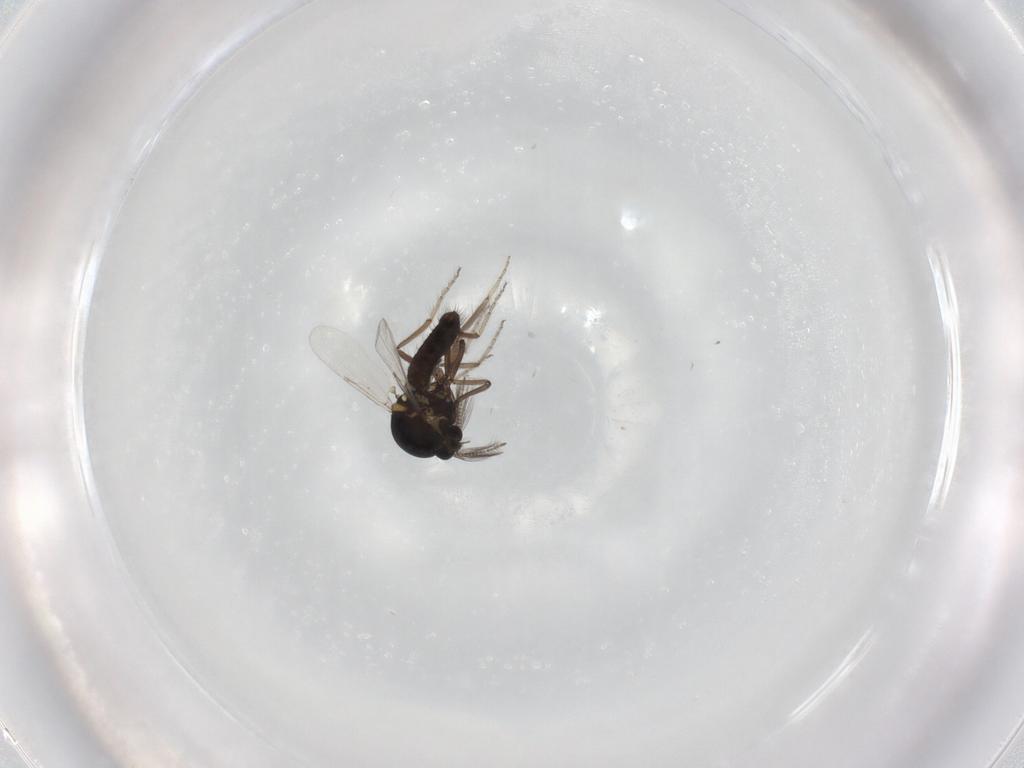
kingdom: Animalia
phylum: Arthropoda
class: Insecta
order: Diptera
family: Ceratopogonidae
